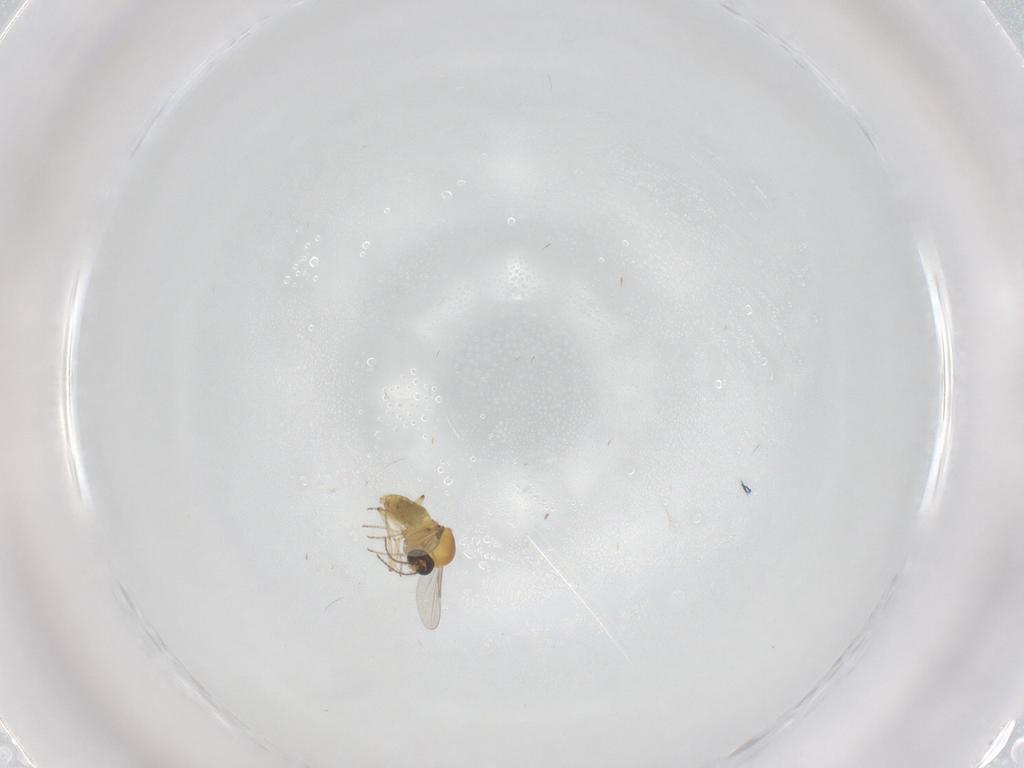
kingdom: Animalia
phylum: Arthropoda
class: Insecta
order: Diptera
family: Ceratopogonidae
